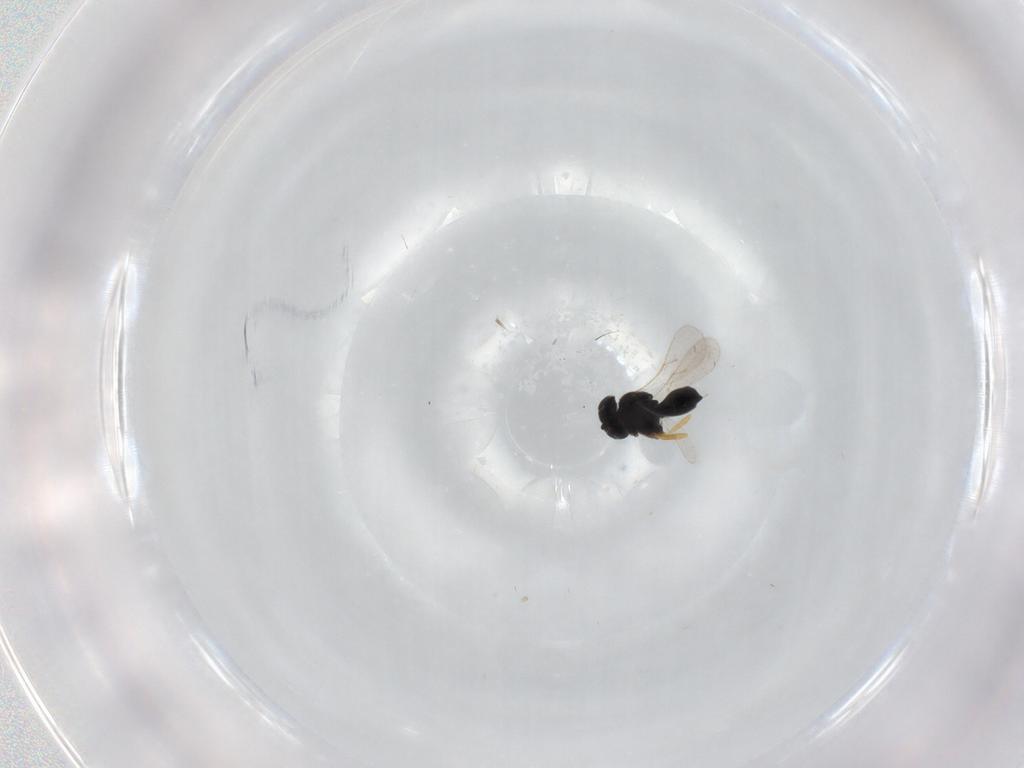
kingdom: Animalia
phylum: Arthropoda
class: Insecta
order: Hymenoptera
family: Scelionidae
